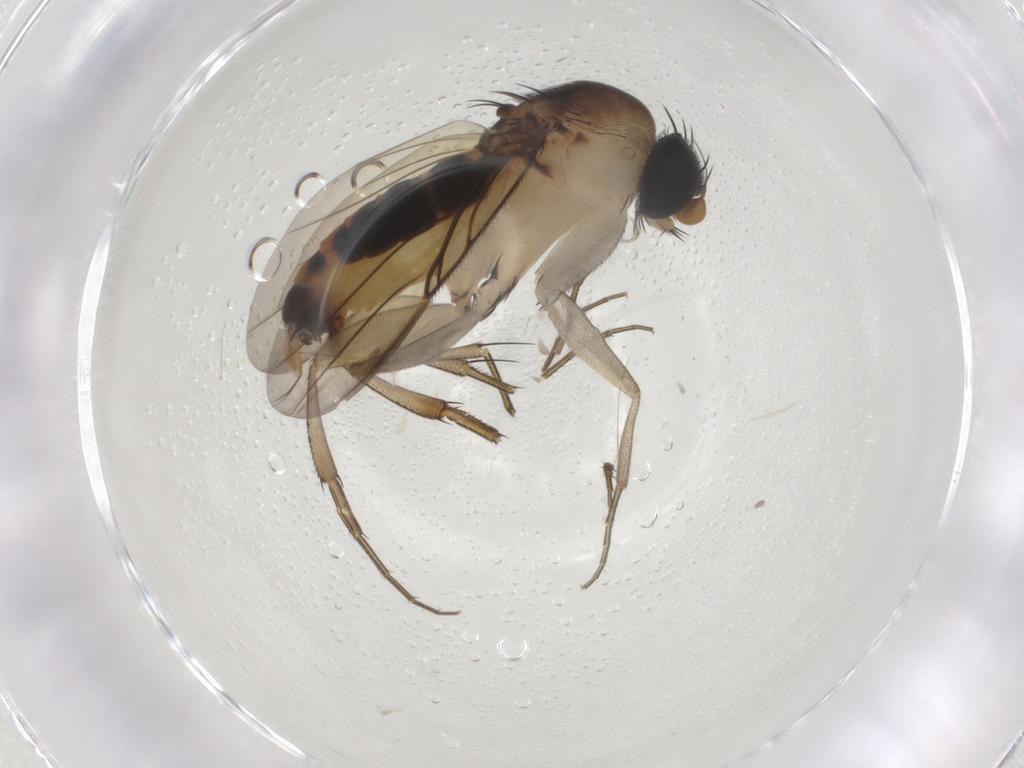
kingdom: Animalia
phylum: Arthropoda
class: Insecta
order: Diptera
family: Phoridae
